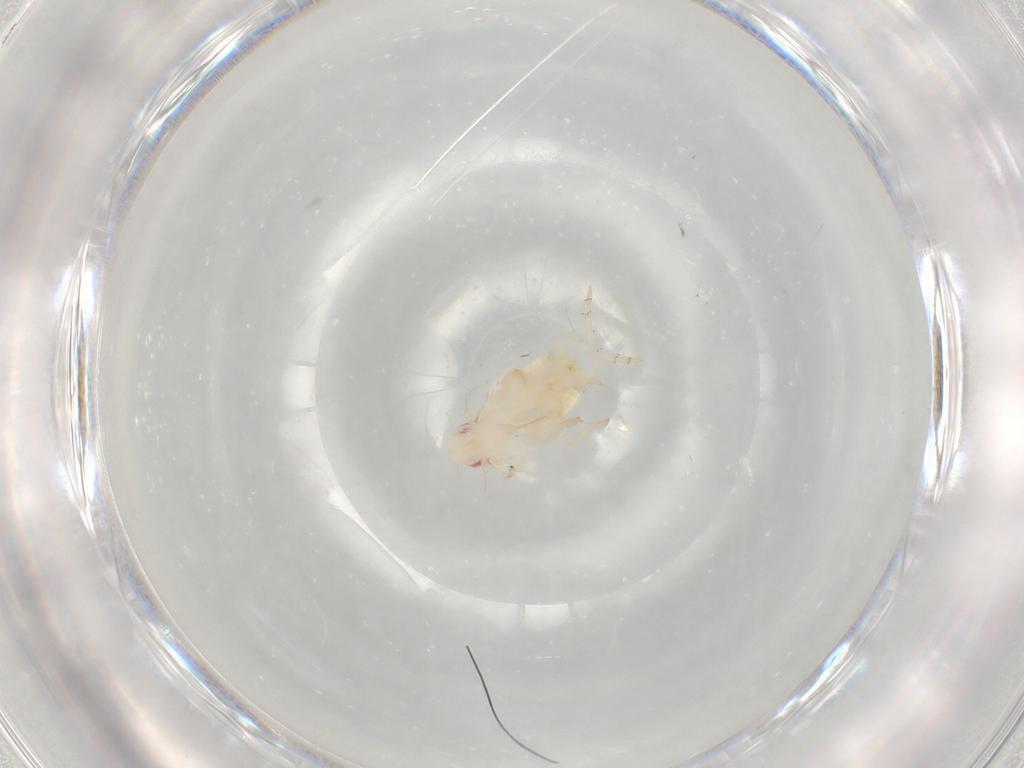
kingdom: Animalia
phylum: Arthropoda
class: Insecta
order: Hemiptera
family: Flatidae
